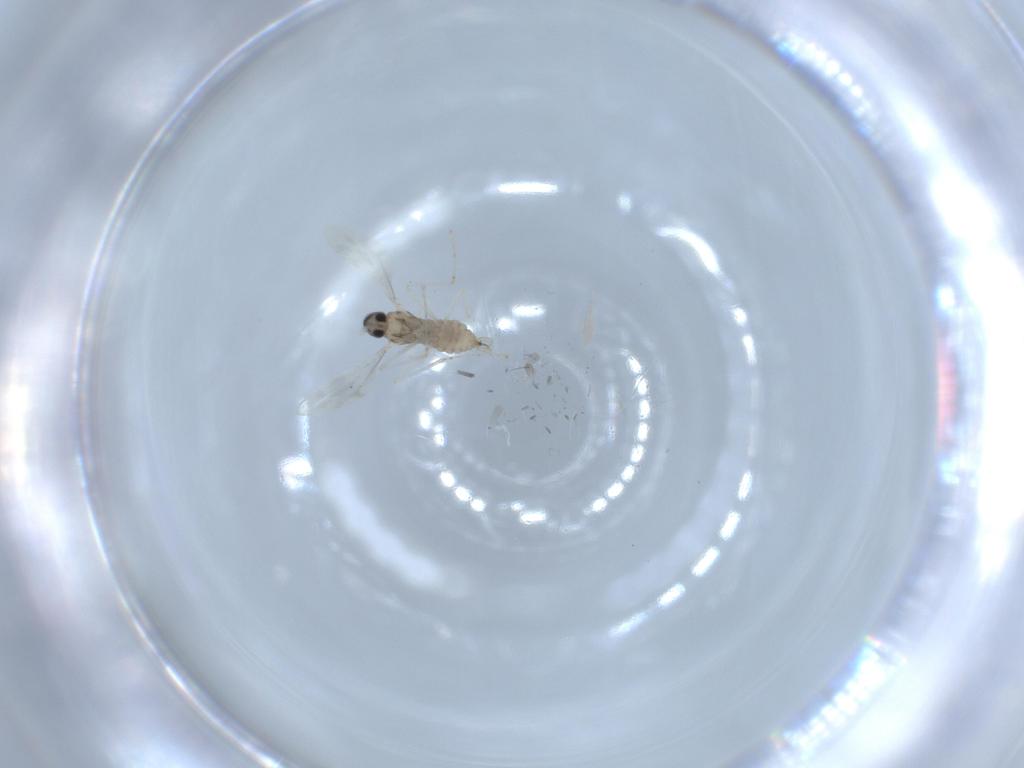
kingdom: Animalia
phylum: Arthropoda
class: Insecta
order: Diptera
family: Cecidomyiidae
